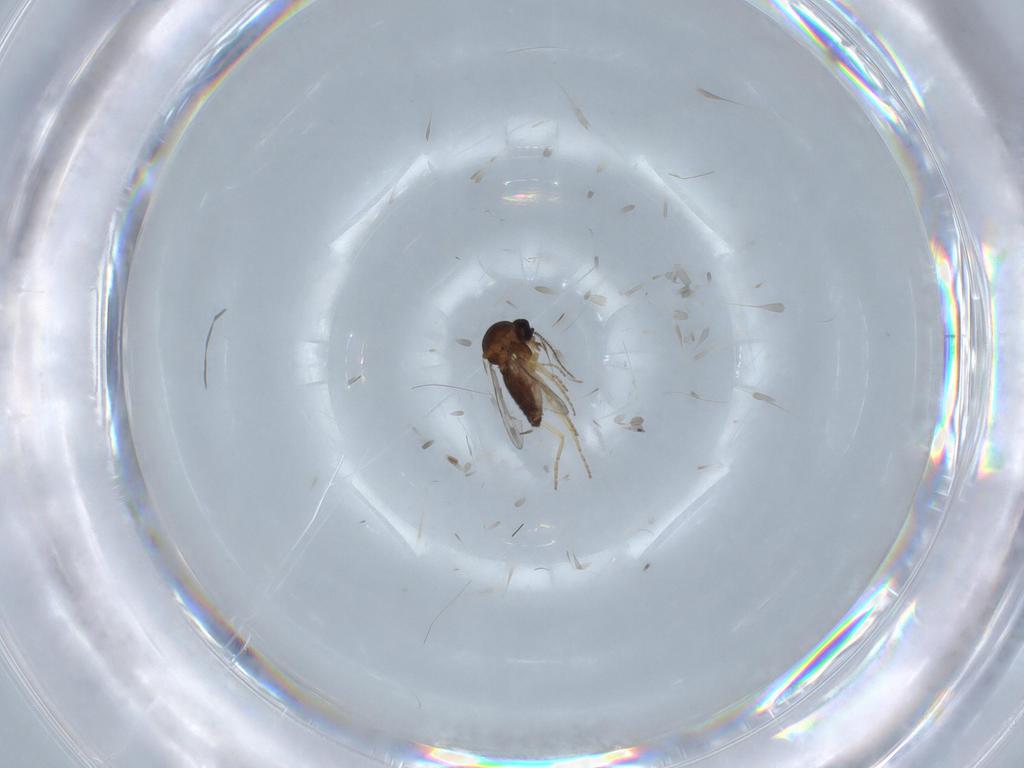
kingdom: Animalia
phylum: Arthropoda
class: Insecta
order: Diptera
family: Ceratopogonidae
